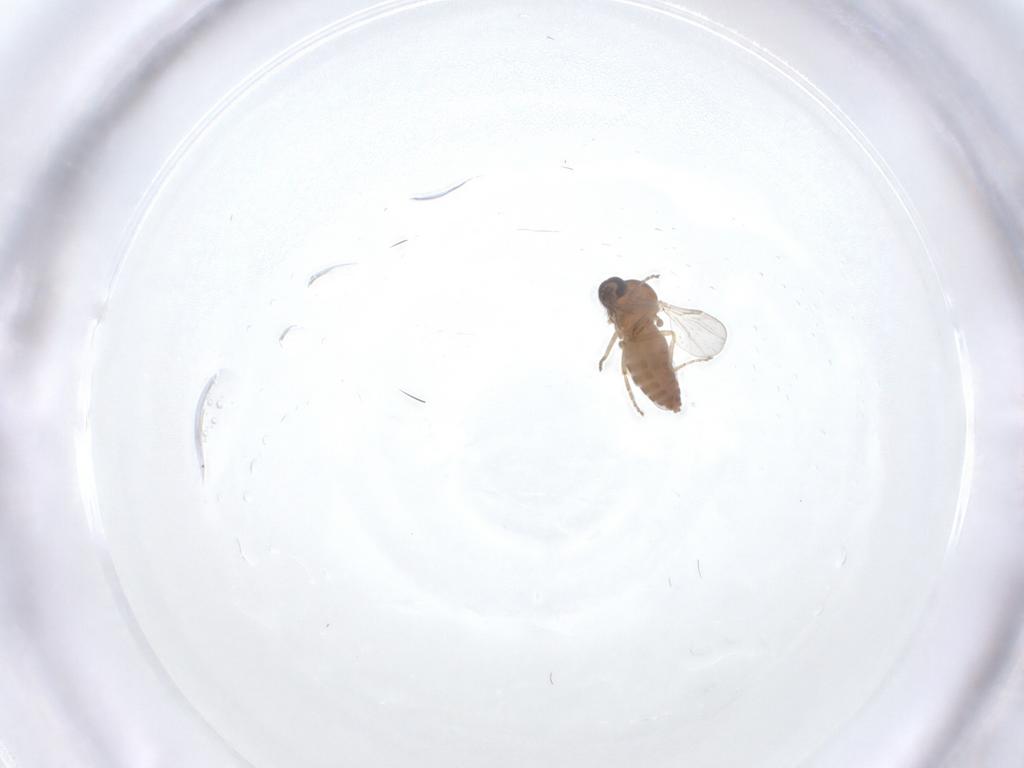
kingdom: Animalia
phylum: Arthropoda
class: Insecta
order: Diptera
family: Ceratopogonidae
